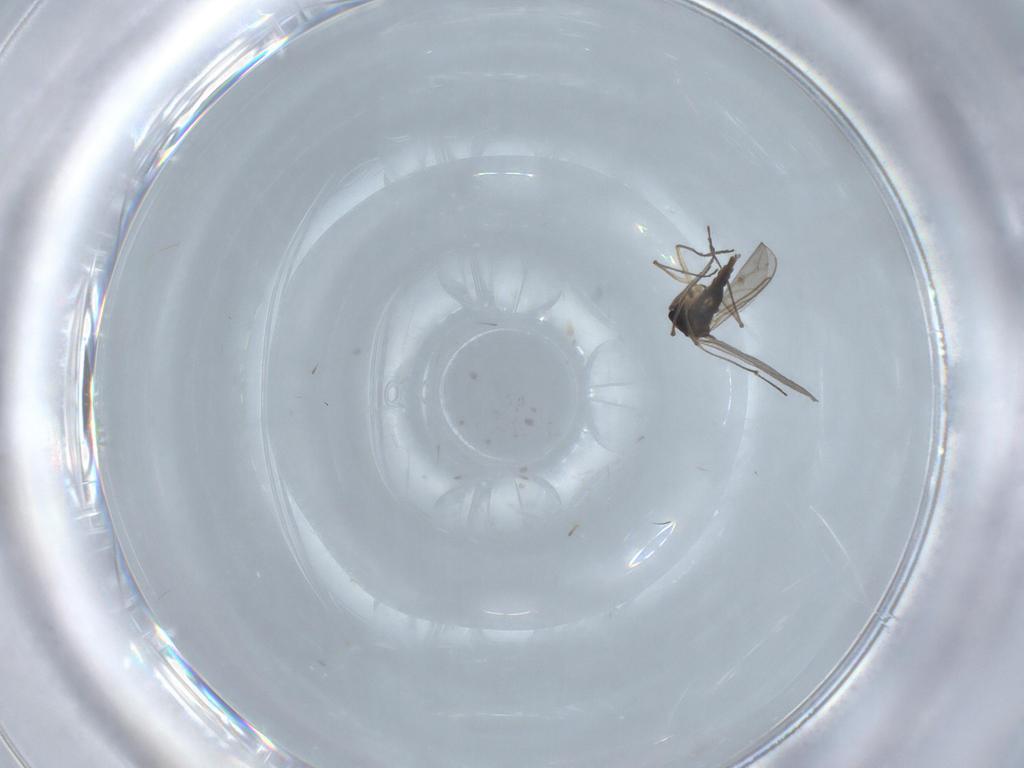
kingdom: Animalia
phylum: Arthropoda
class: Insecta
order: Diptera
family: Sciaridae
